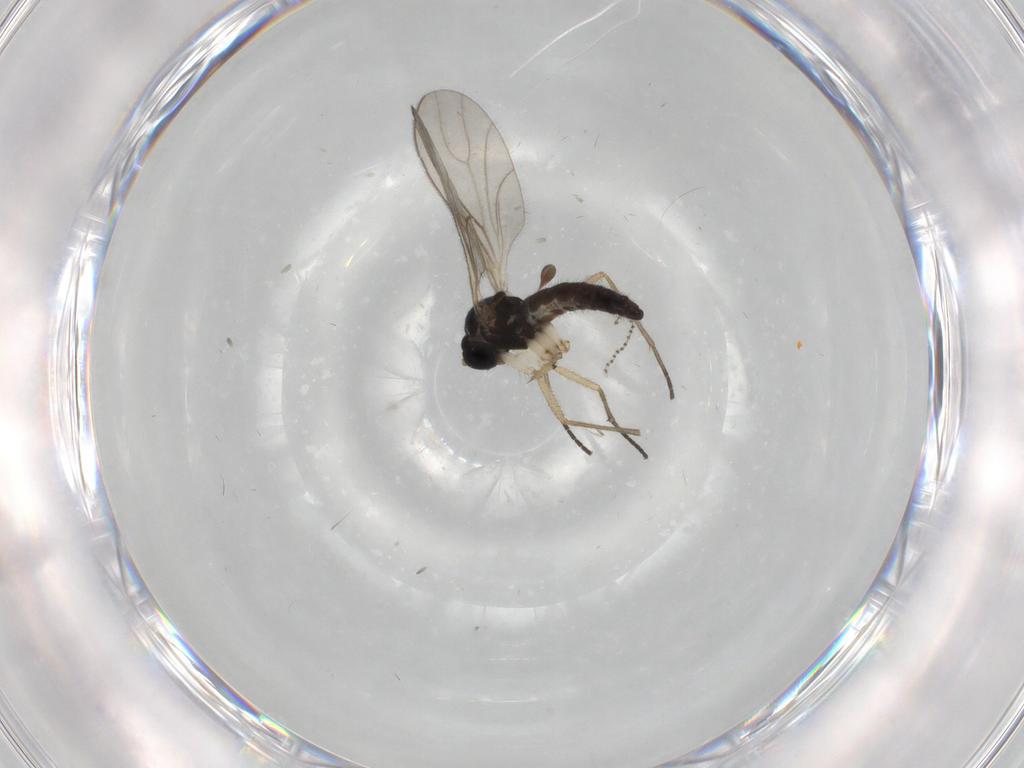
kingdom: Animalia
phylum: Arthropoda
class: Insecta
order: Diptera
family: Sciaridae
